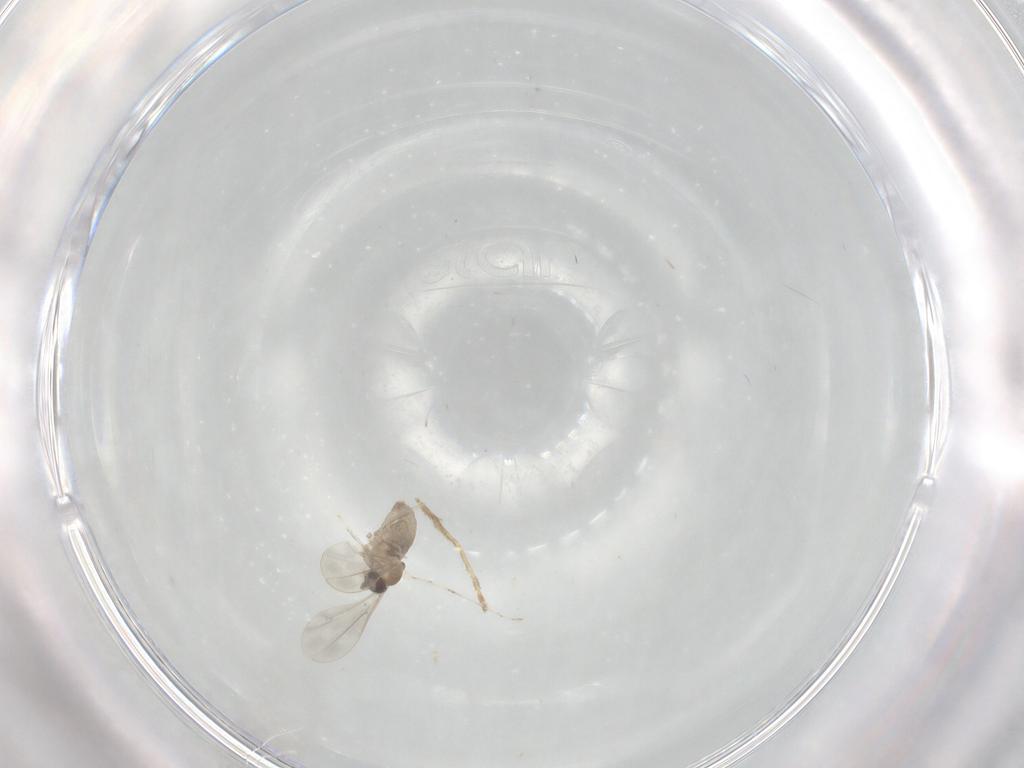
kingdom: Animalia
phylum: Arthropoda
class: Insecta
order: Diptera
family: Cecidomyiidae
